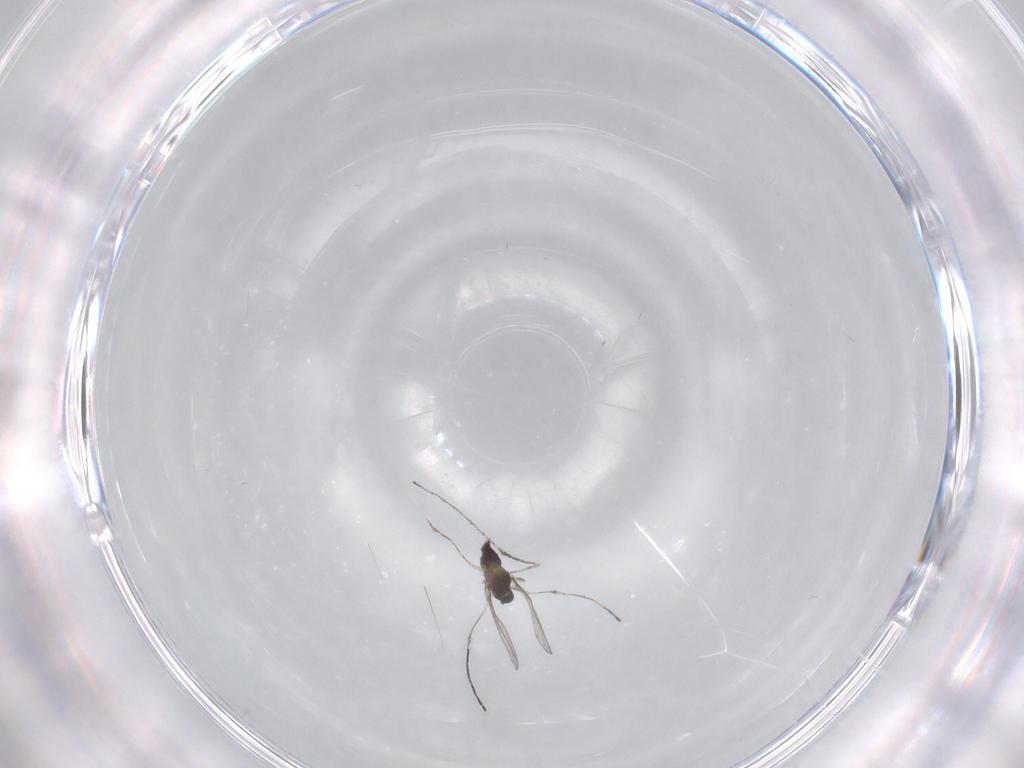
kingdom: Animalia
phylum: Arthropoda
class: Insecta
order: Diptera
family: Cecidomyiidae
